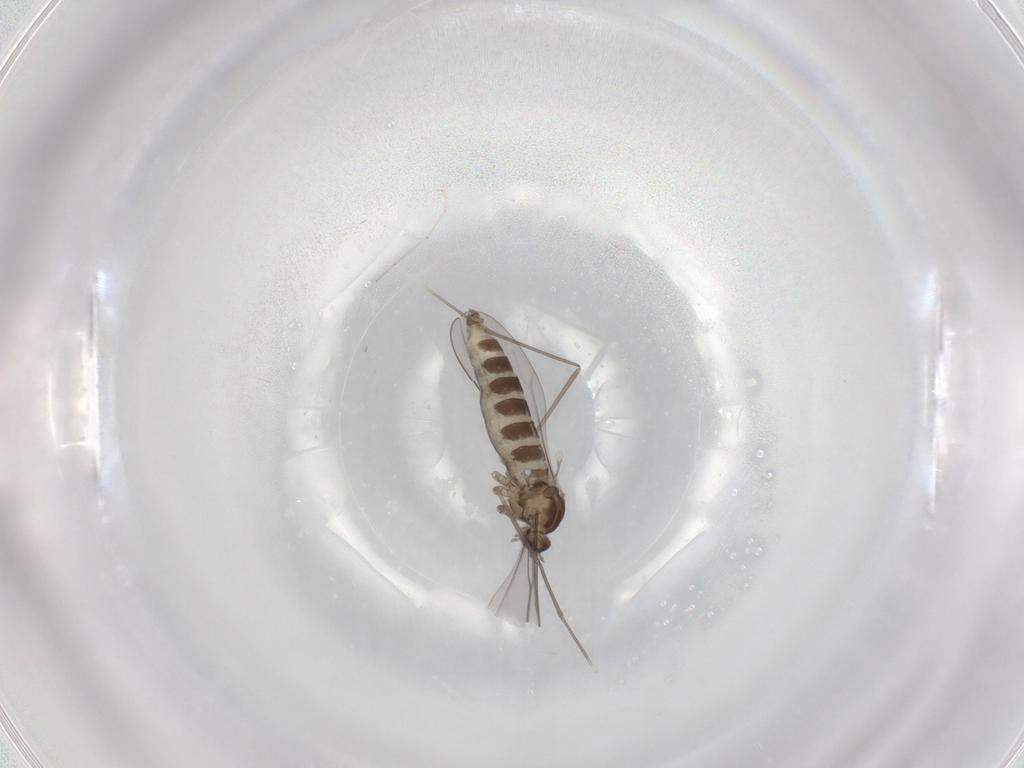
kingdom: Animalia
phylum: Arthropoda
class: Insecta
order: Diptera
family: Cecidomyiidae
